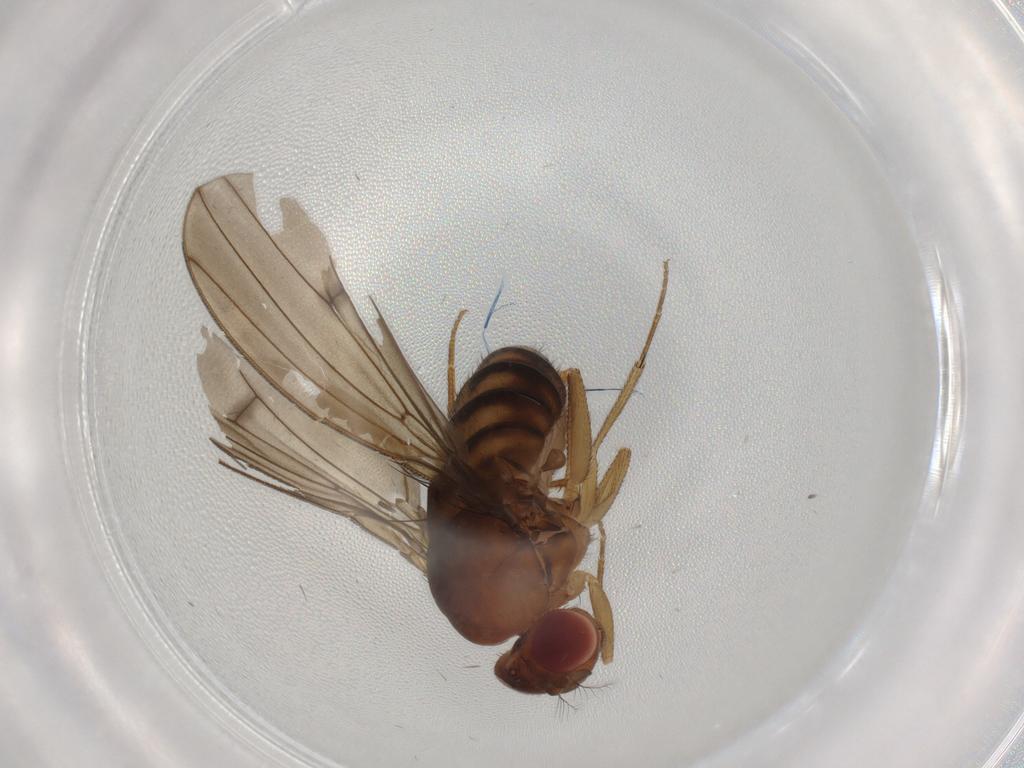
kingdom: Animalia
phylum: Arthropoda
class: Insecta
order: Diptera
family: Drosophilidae
